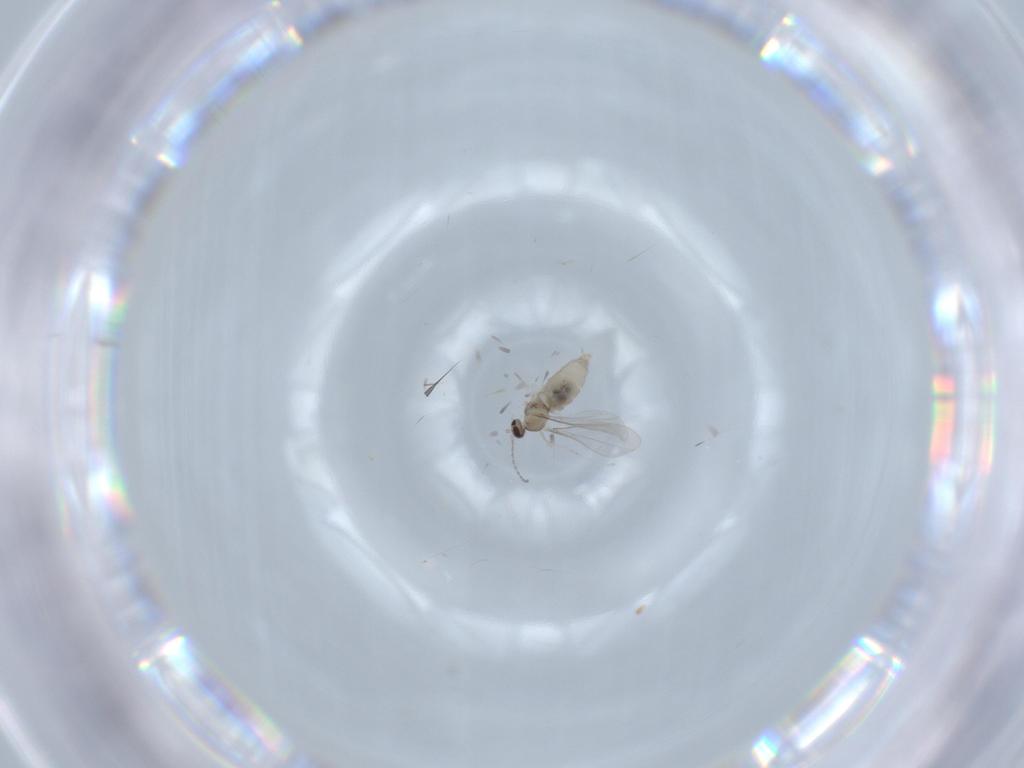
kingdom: Animalia
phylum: Arthropoda
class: Insecta
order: Diptera
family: Cecidomyiidae
